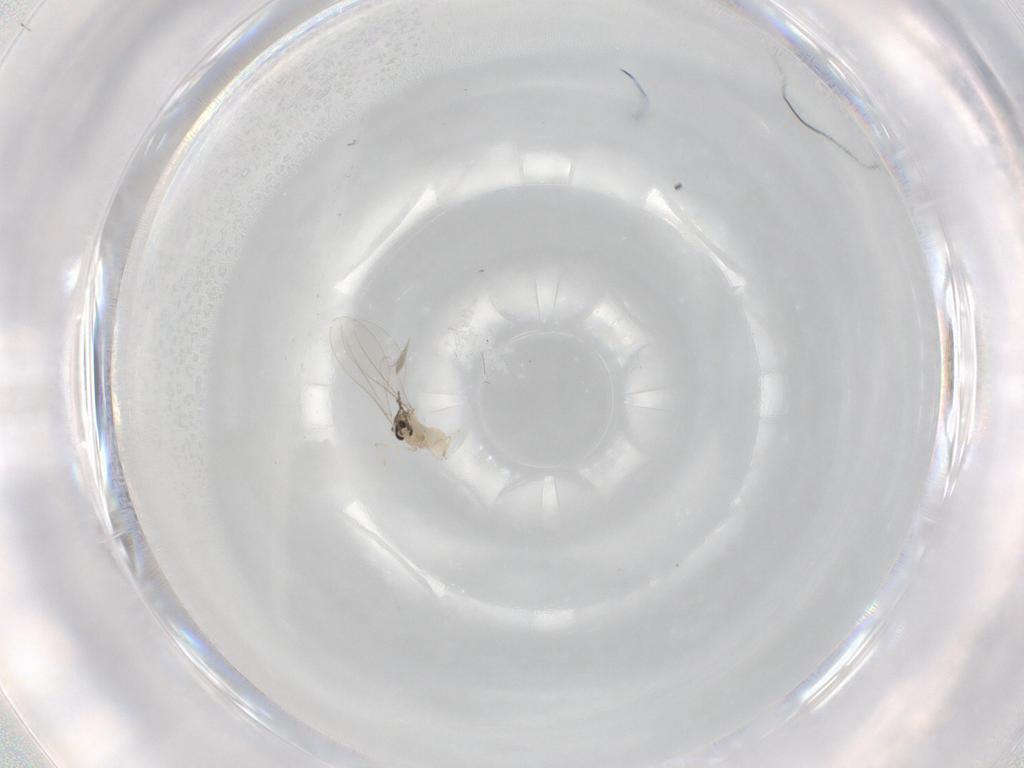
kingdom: Animalia
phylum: Arthropoda
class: Insecta
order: Diptera
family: Cecidomyiidae
